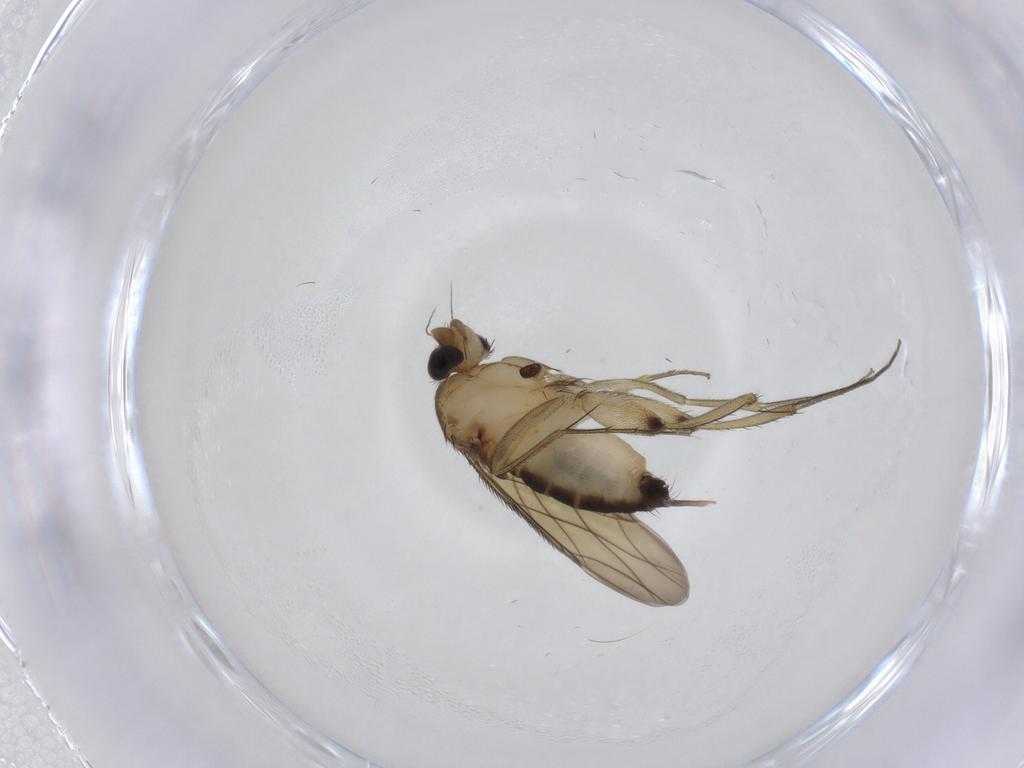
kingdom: Animalia
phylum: Arthropoda
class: Insecta
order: Diptera
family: Phoridae
